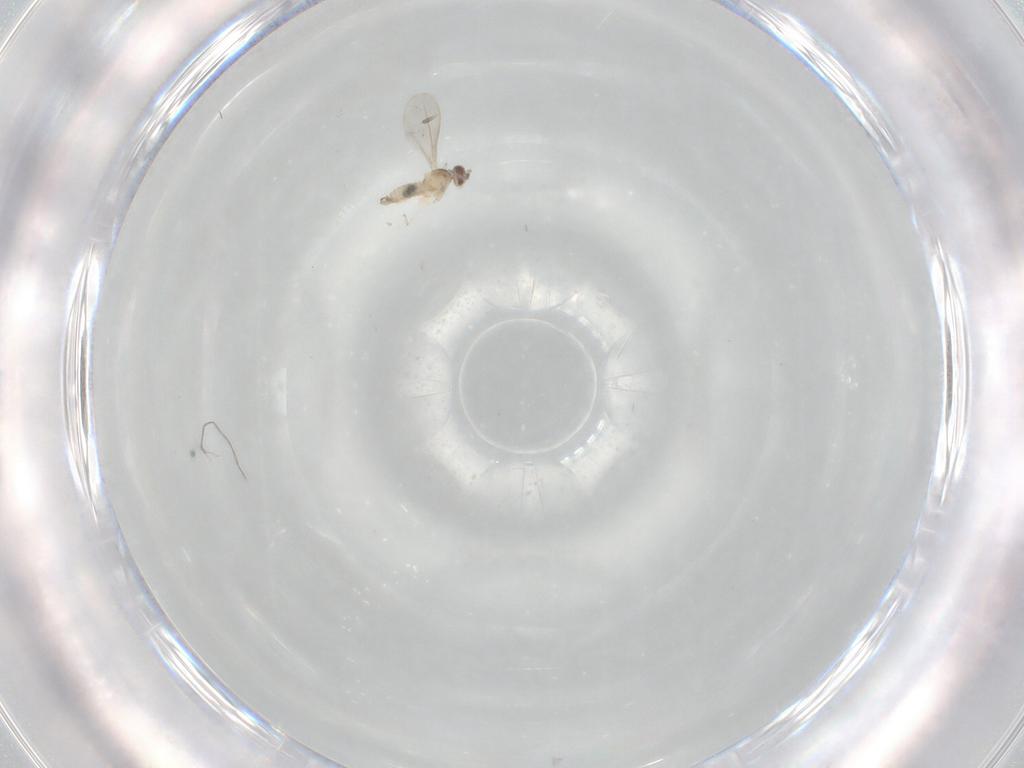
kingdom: Animalia
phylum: Arthropoda
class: Insecta
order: Diptera
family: Cecidomyiidae
